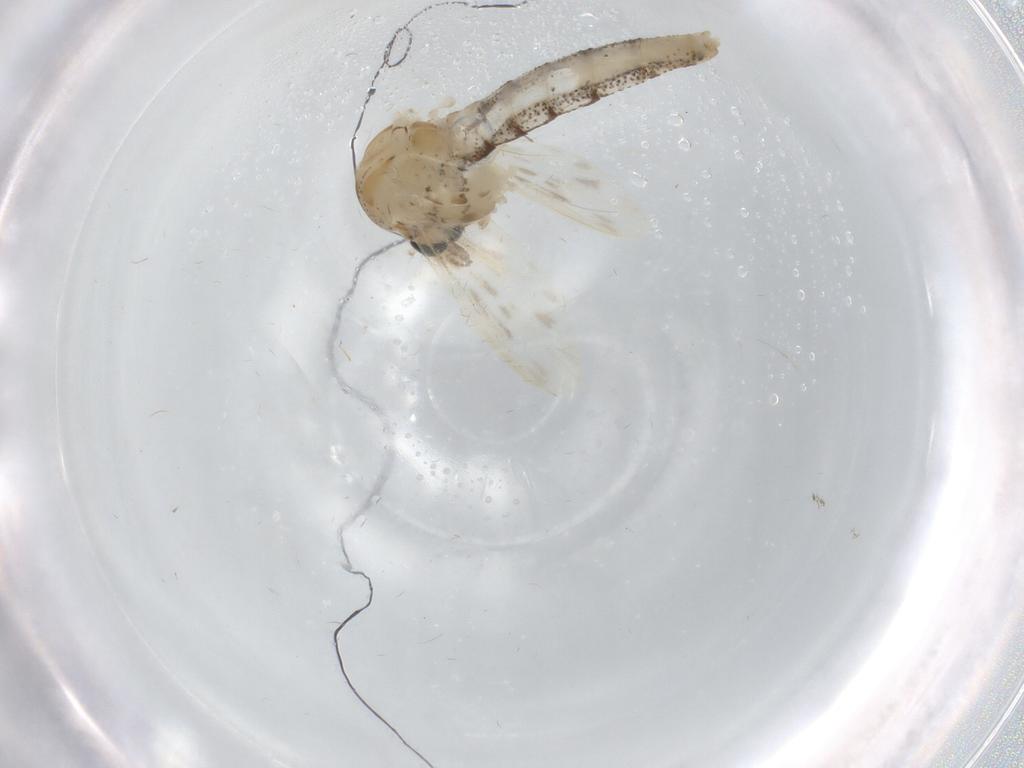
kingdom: Animalia
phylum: Arthropoda
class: Insecta
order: Diptera
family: Chaoboridae
